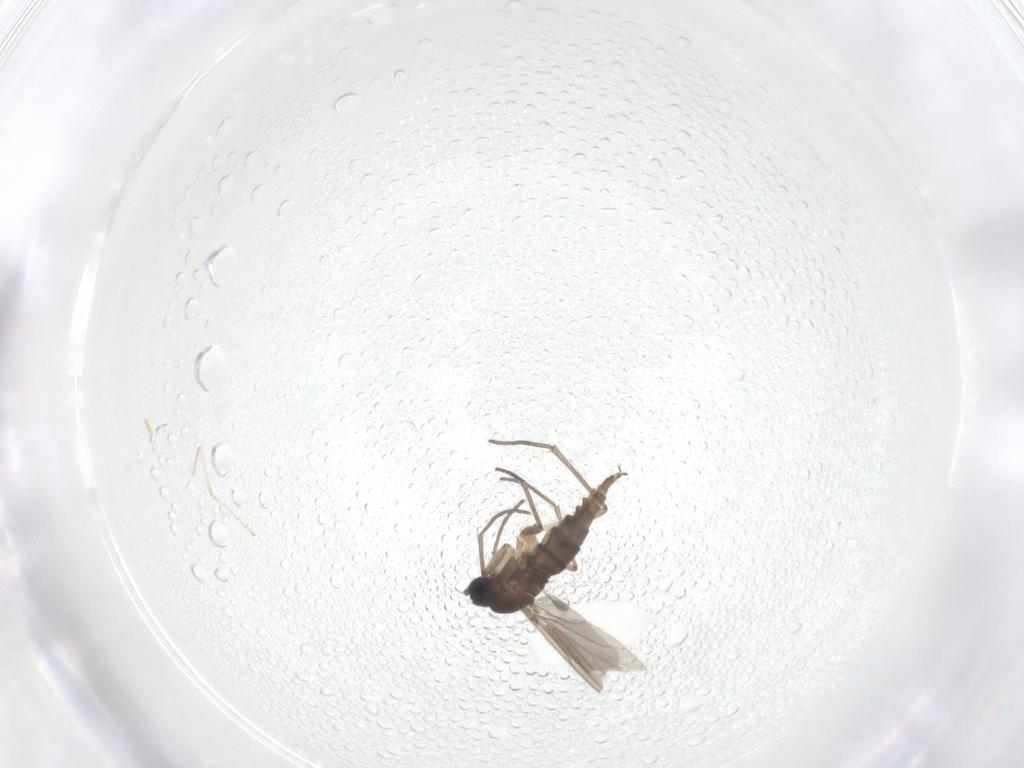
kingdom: Animalia
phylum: Arthropoda
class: Insecta
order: Diptera
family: Sciaridae
